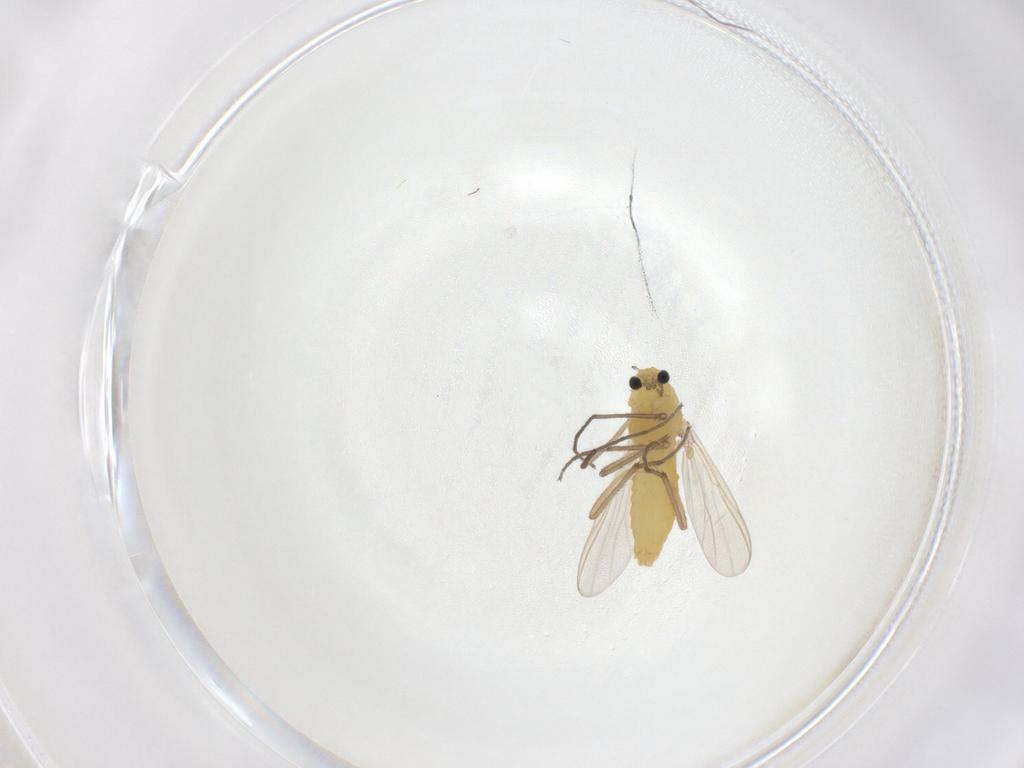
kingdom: Animalia
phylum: Arthropoda
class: Insecta
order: Diptera
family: Chironomidae
